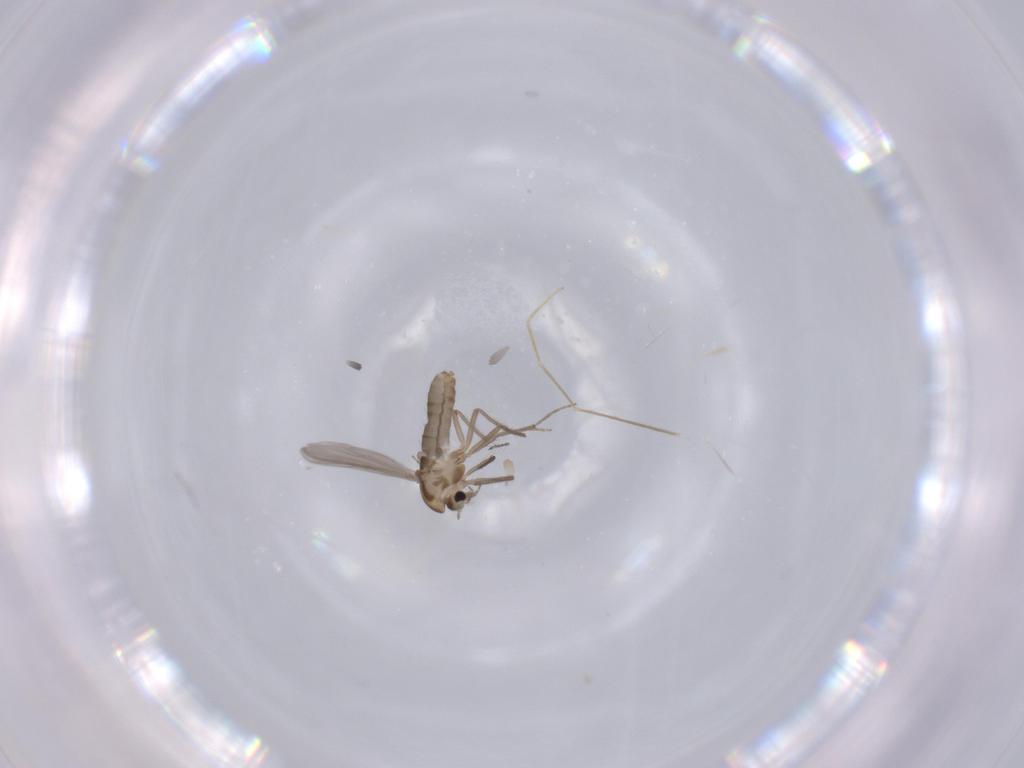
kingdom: Animalia
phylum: Arthropoda
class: Insecta
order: Diptera
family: Chironomidae
